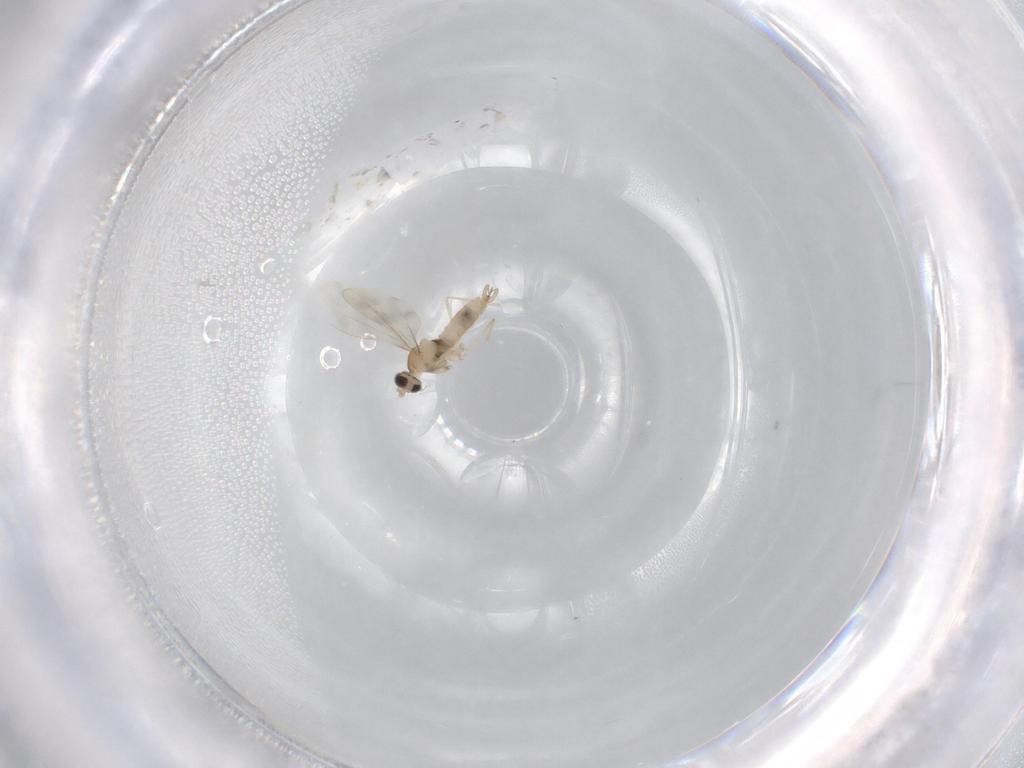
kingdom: Animalia
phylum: Arthropoda
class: Insecta
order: Diptera
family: Cecidomyiidae
